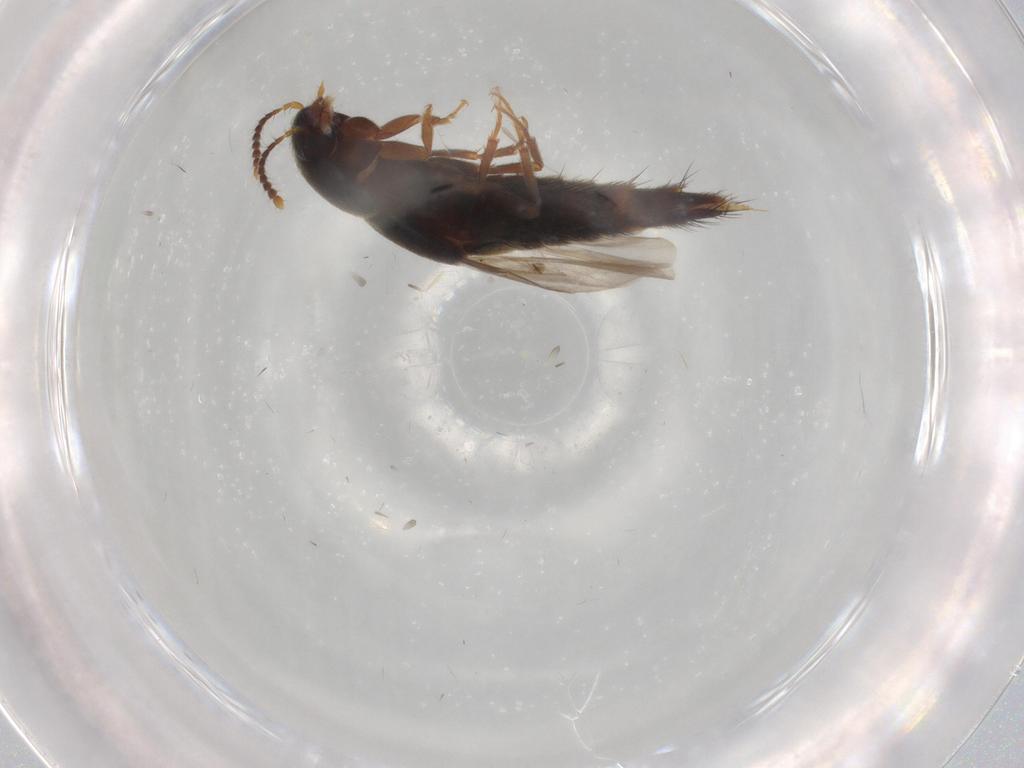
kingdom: Animalia
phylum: Arthropoda
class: Insecta
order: Coleoptera
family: Staphylinidae
